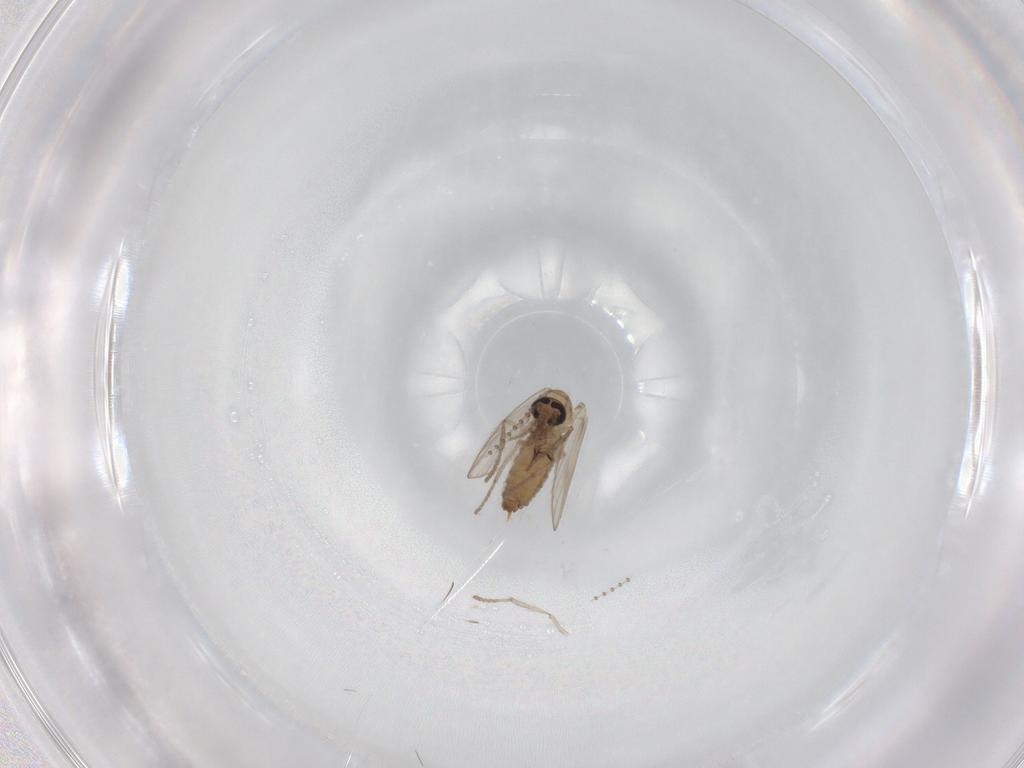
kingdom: Animalia
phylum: Arthropoda
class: Insecta
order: Diptera
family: Psychodidae
